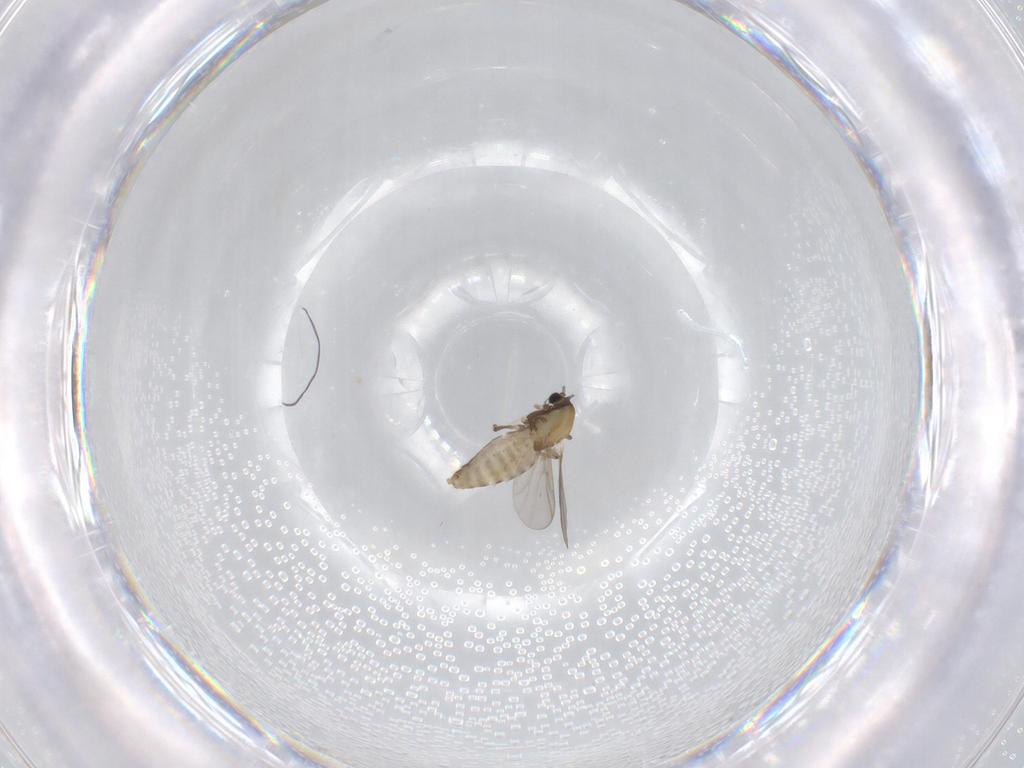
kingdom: Animalia
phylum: Arthropoda
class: Insecta
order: Diptera
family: Chironomidae
